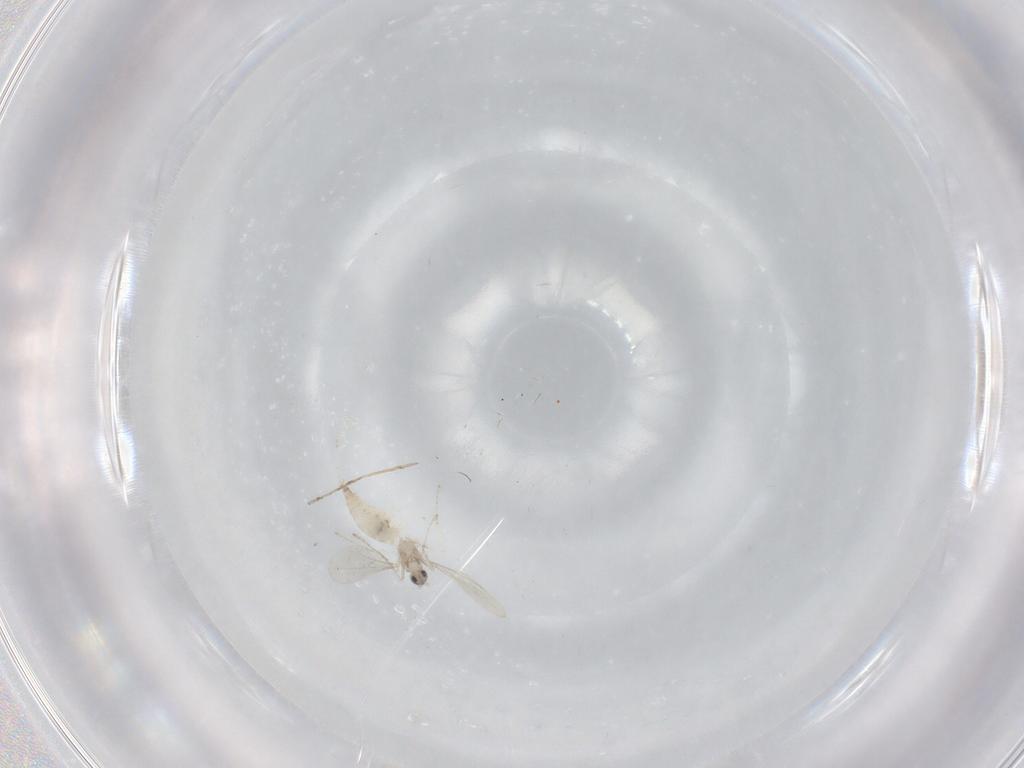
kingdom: Animalia
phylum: Arthropoda
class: Insecta
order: Diptera
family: Cecidomyiidae
